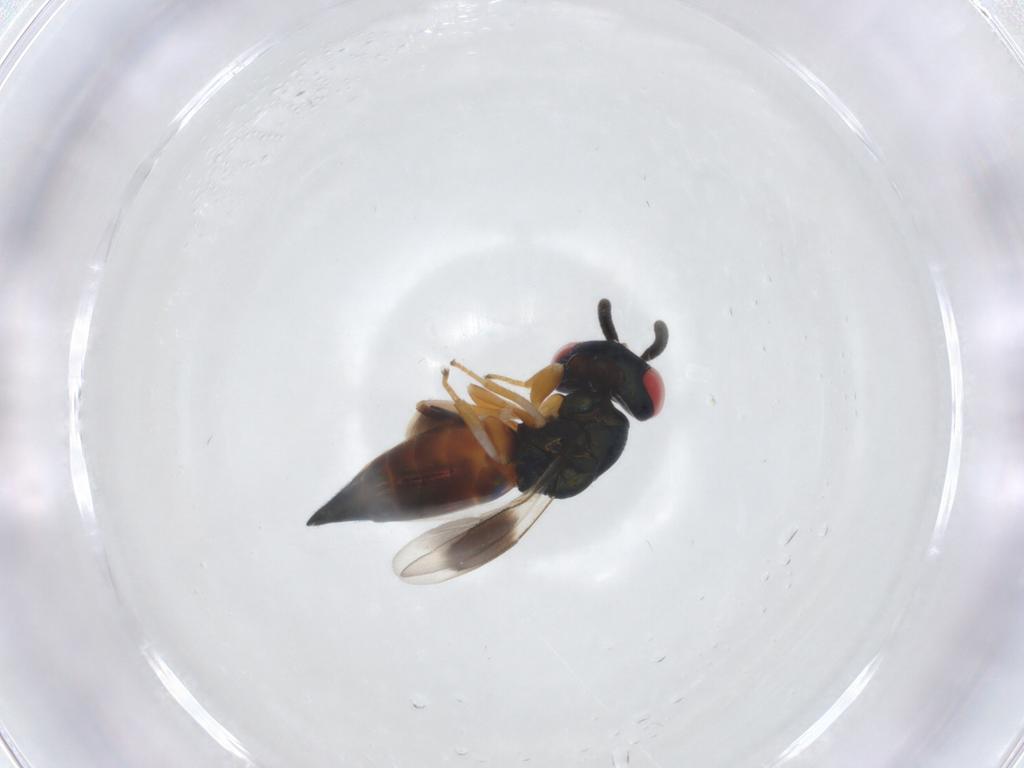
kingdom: Animalia
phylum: Arthropoda
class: Insecta
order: Hymenoptera
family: Pteromalidae
